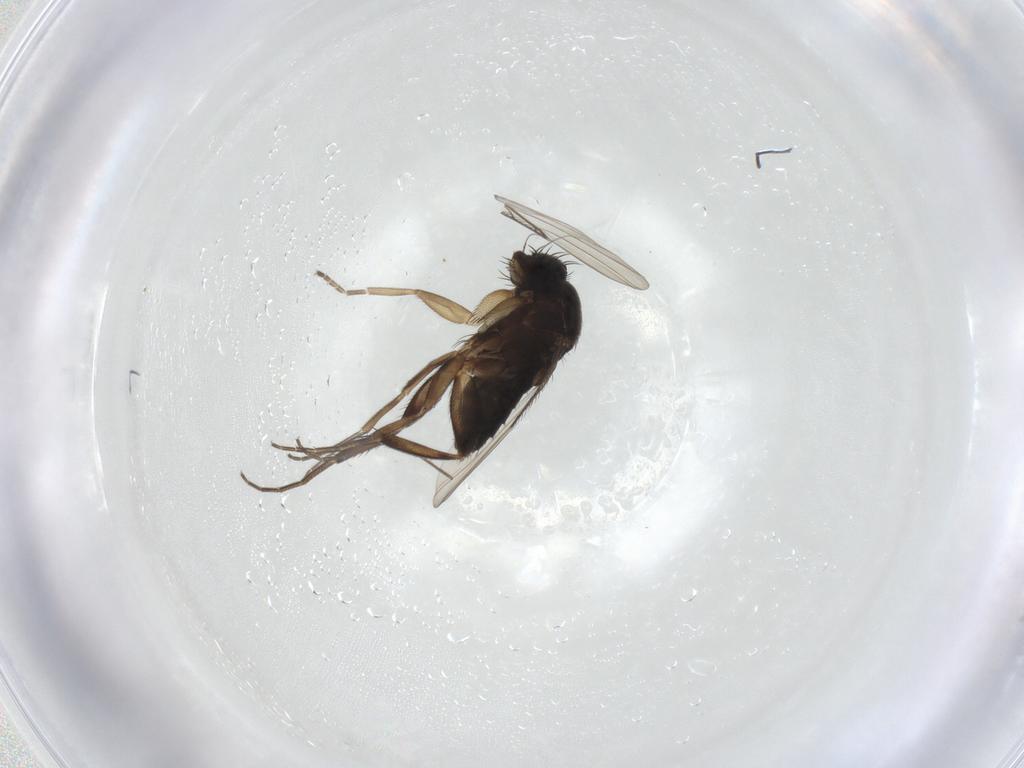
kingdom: Animalia
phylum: Arthropoda
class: Insecta
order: Diptera
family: Phoridae
